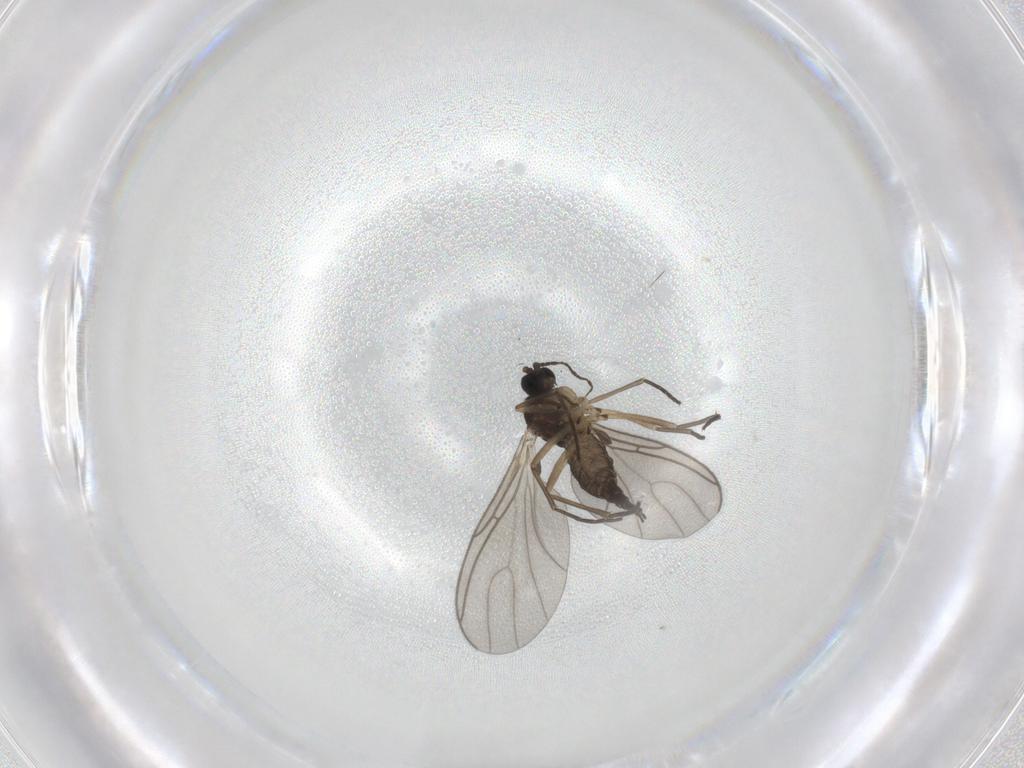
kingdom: Animalia
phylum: Arthropoda
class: Insecta
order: Diptera
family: Sciaridae
